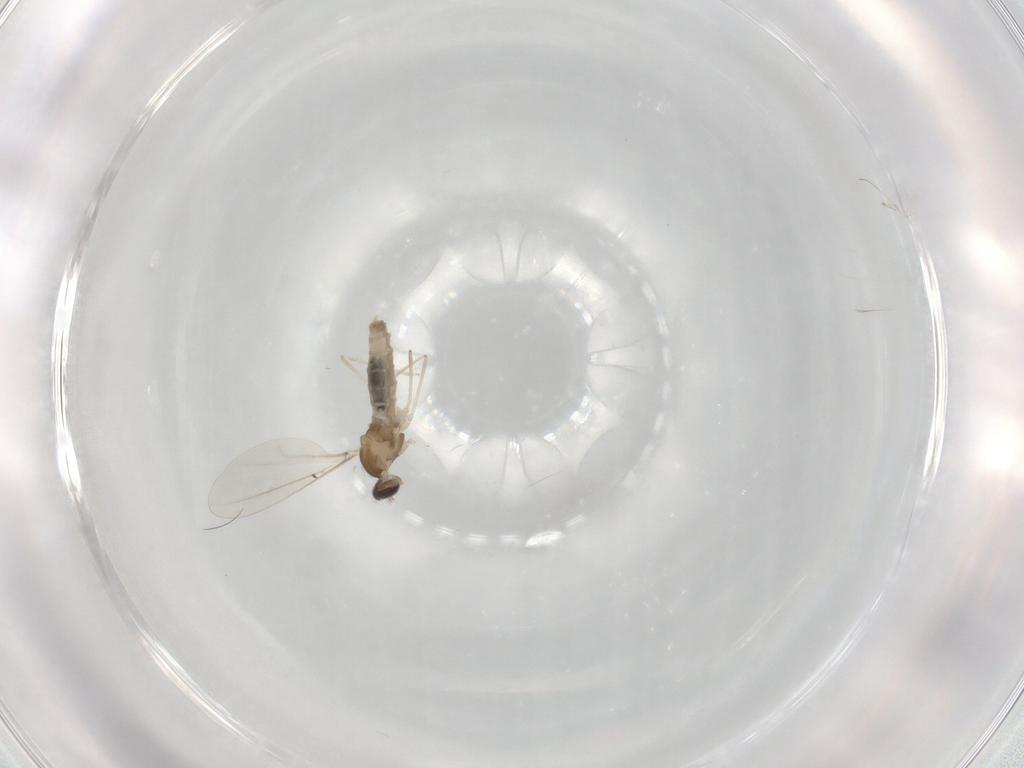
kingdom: Animalia
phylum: Arthropoda
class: Insecta
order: Diptera
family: Cecidomyiidae
